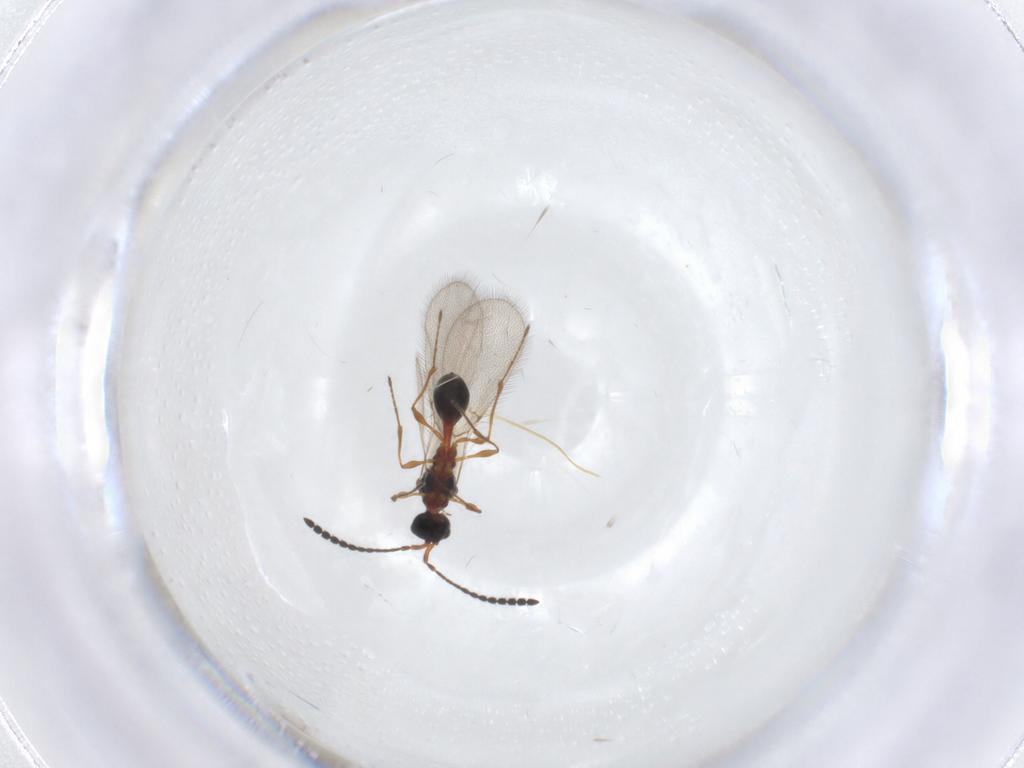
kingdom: Animalia
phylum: Arthropoda
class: Insecta
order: Hymenoptera
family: Diapriidae
